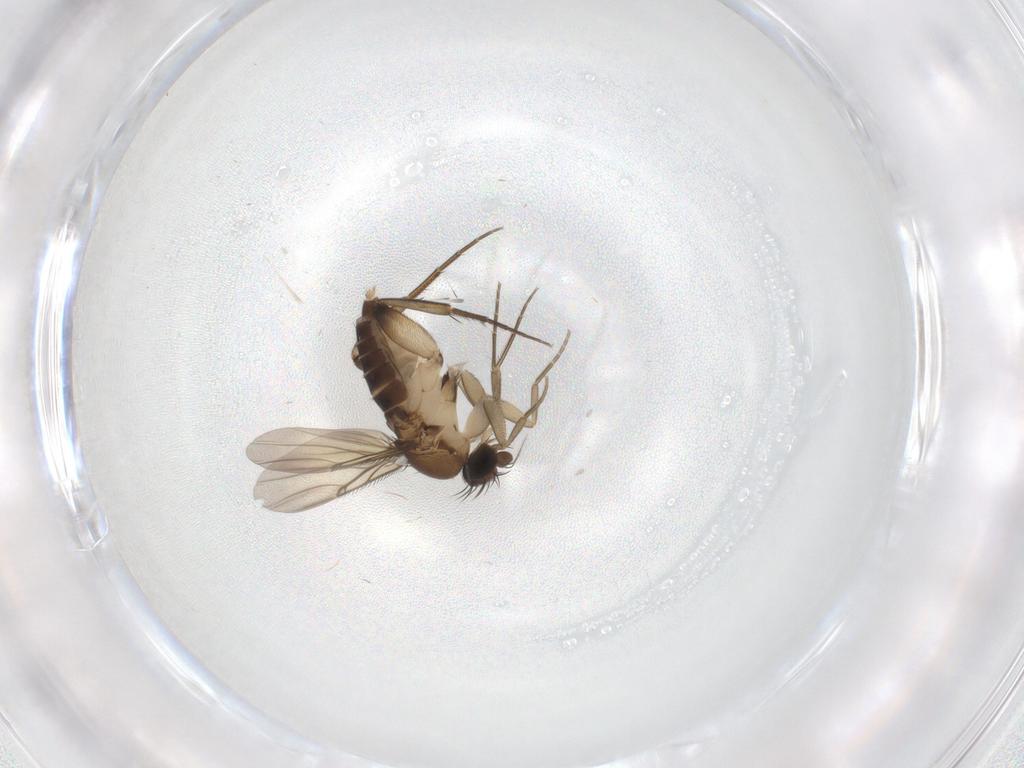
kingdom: Animalia
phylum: Arthropoda
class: Insecta
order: Diptera
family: Phoridae
